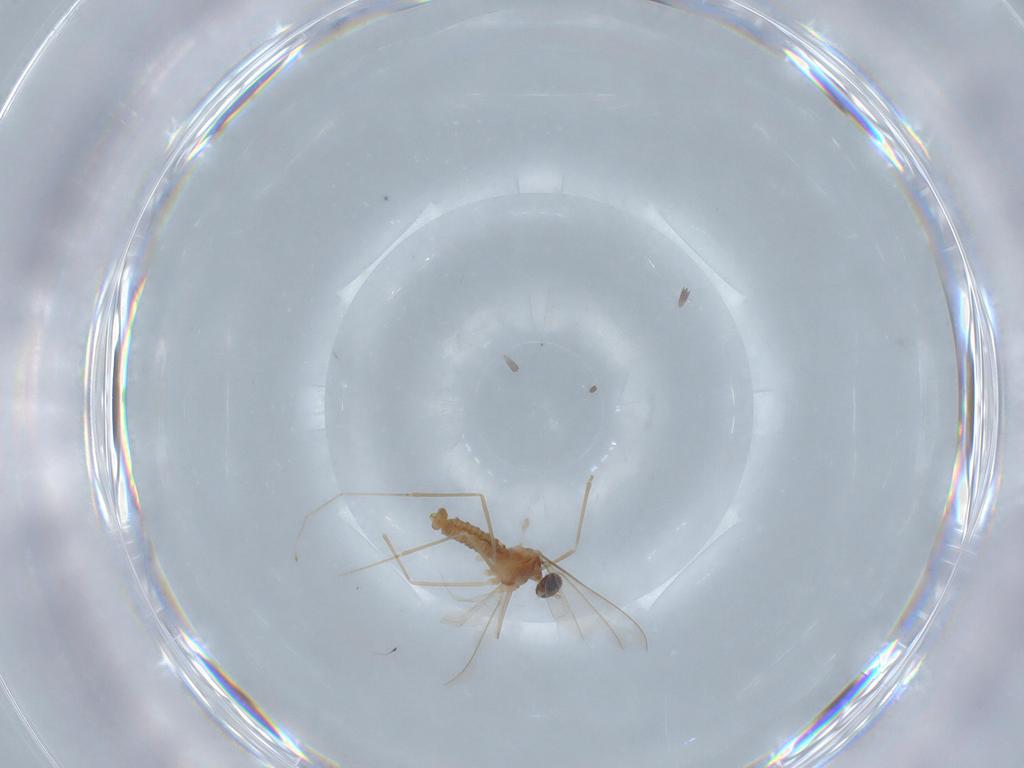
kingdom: Animalia
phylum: Arthropoda
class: Insecta
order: Diptera
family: Cecidomyiidae
